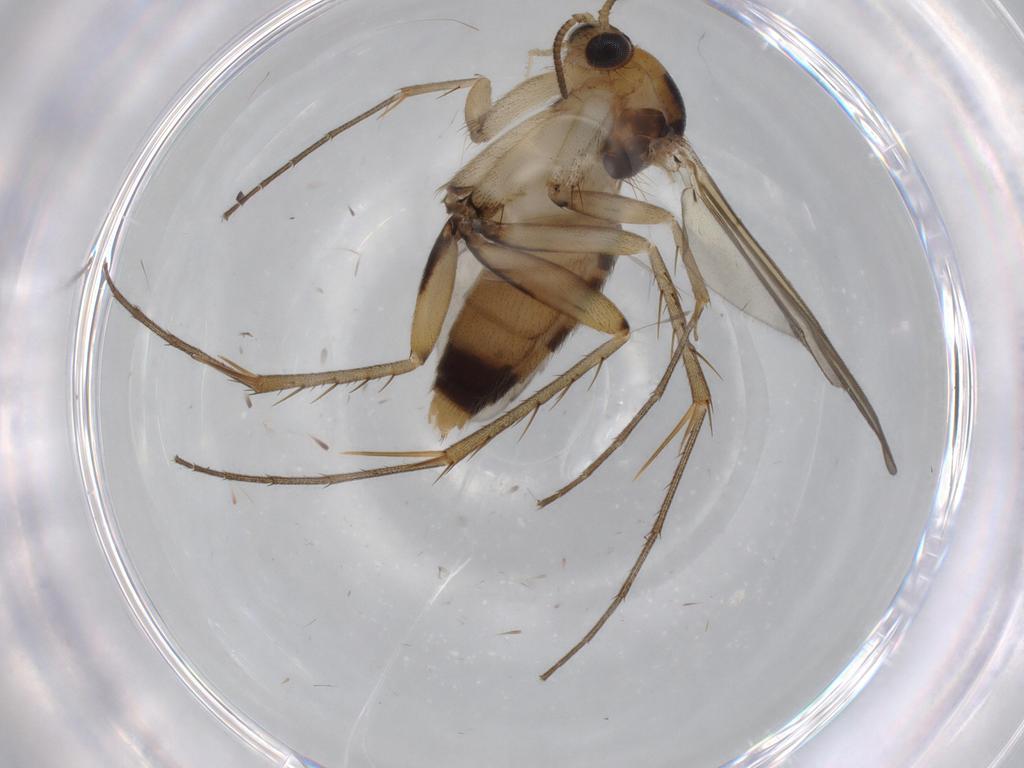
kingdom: Animalia
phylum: Arthropoda
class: Insecta
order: Diptera
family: Mycetophilidae
